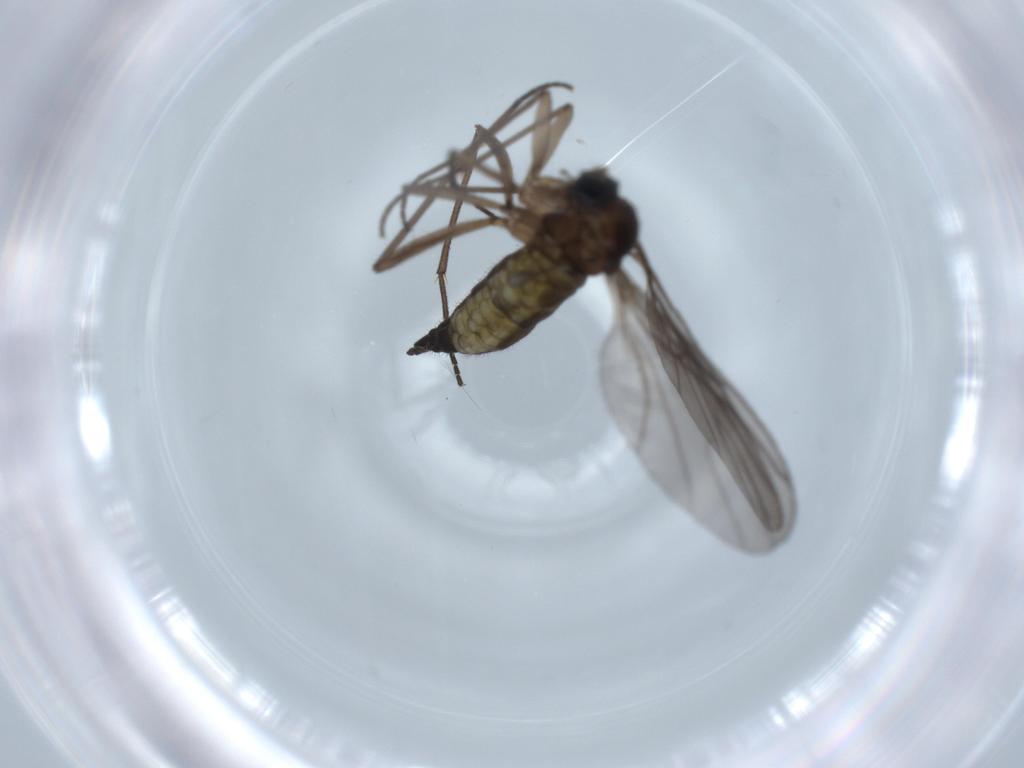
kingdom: Animalia
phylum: Arthropoda
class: Insecta
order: Diptera
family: Sciaridae
